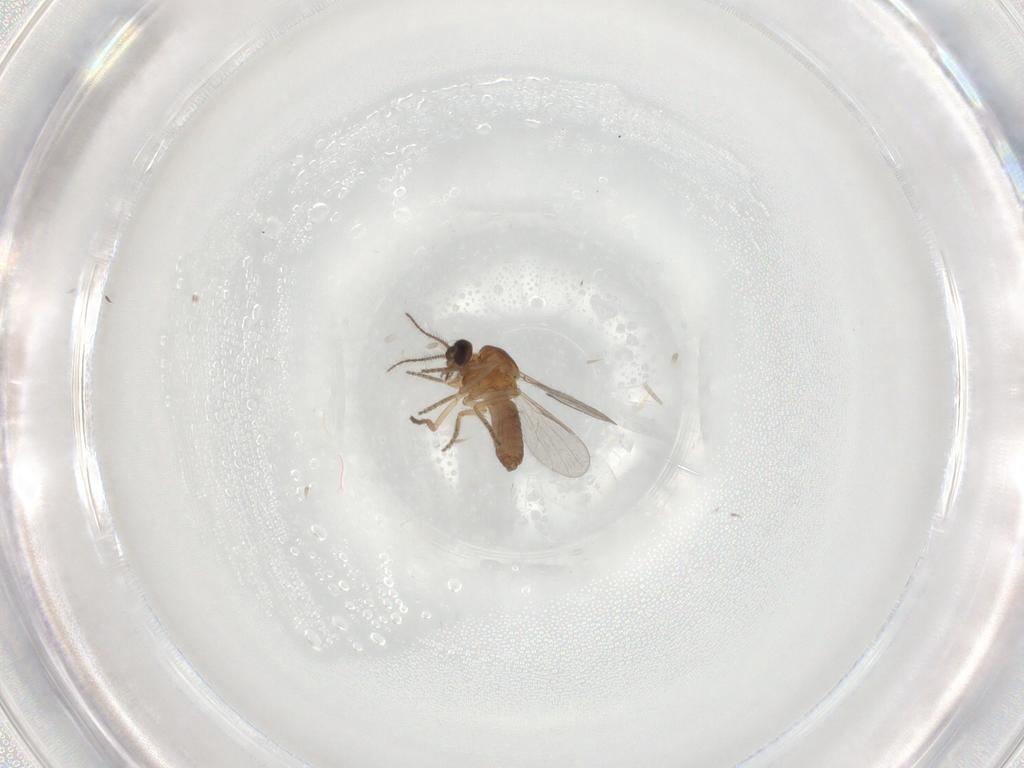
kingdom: Animalia
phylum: Arthropoda
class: Insecta
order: Diptera
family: Ceratopogonidae
